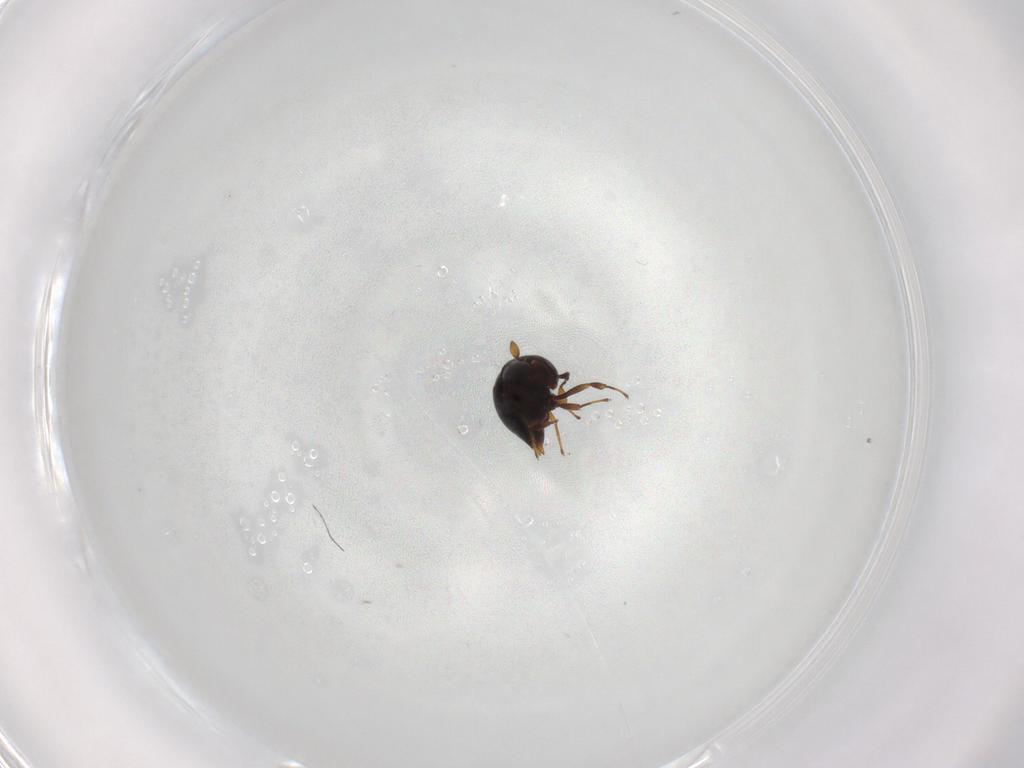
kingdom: Animalia
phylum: Arthropoda
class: Insecta
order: Hymenoptera
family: Scelionidae
